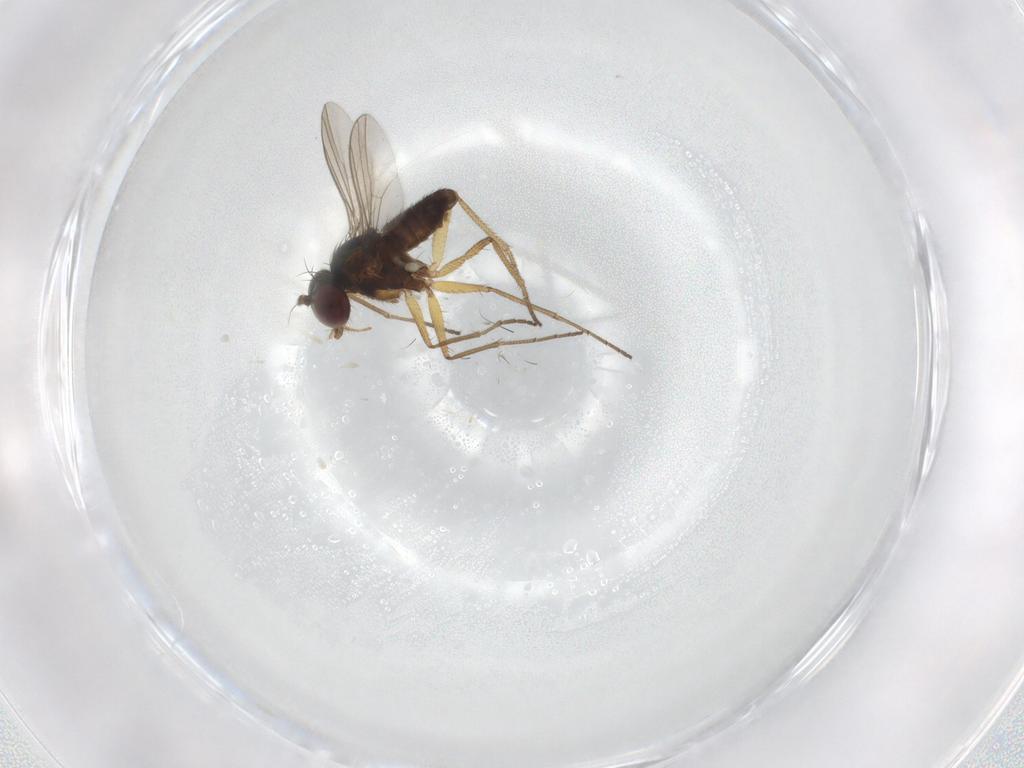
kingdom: Animalia
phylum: Arthropoda
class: Insecta
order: Diptera
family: Dolichopodidae
